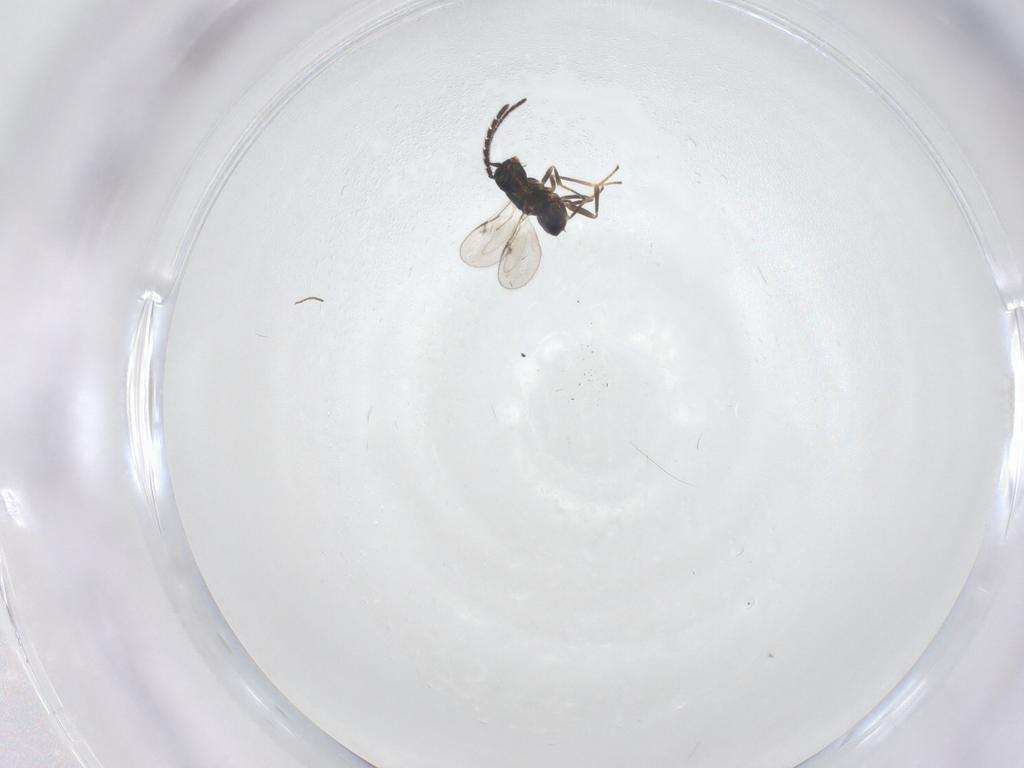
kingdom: Animalia
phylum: Arthropoda
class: Insecta
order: Hymenoptera
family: Encyrtidae
